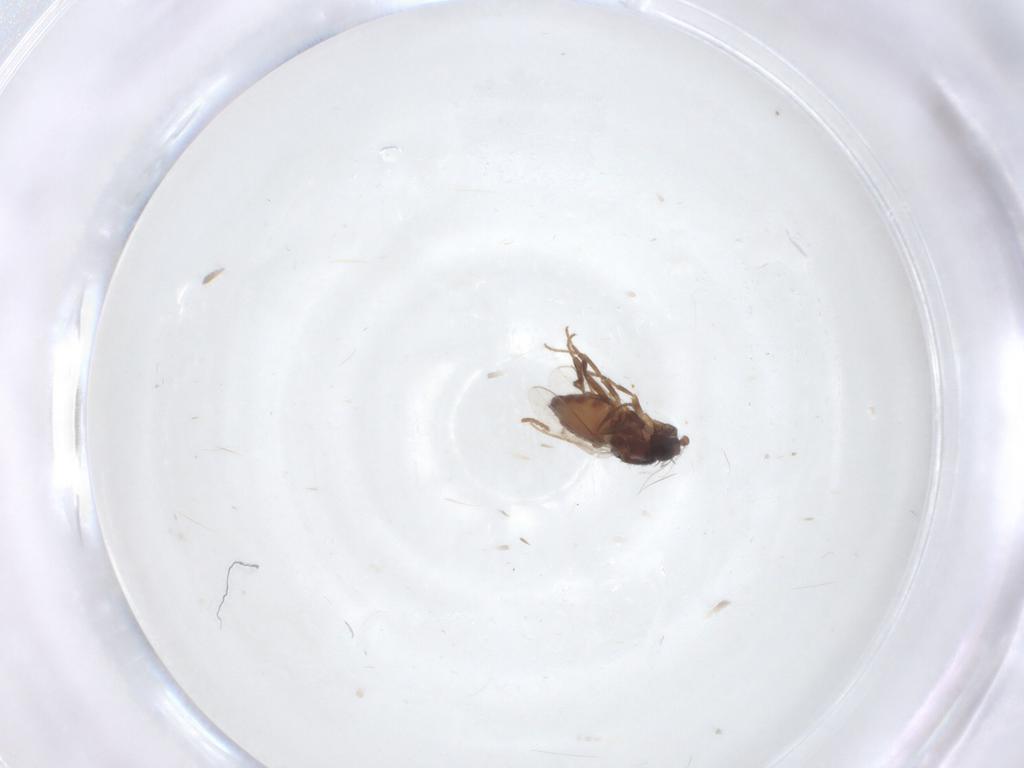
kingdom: Animalia
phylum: Arthropoda
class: Insecta
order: Diptera
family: Sphaeroceridae
